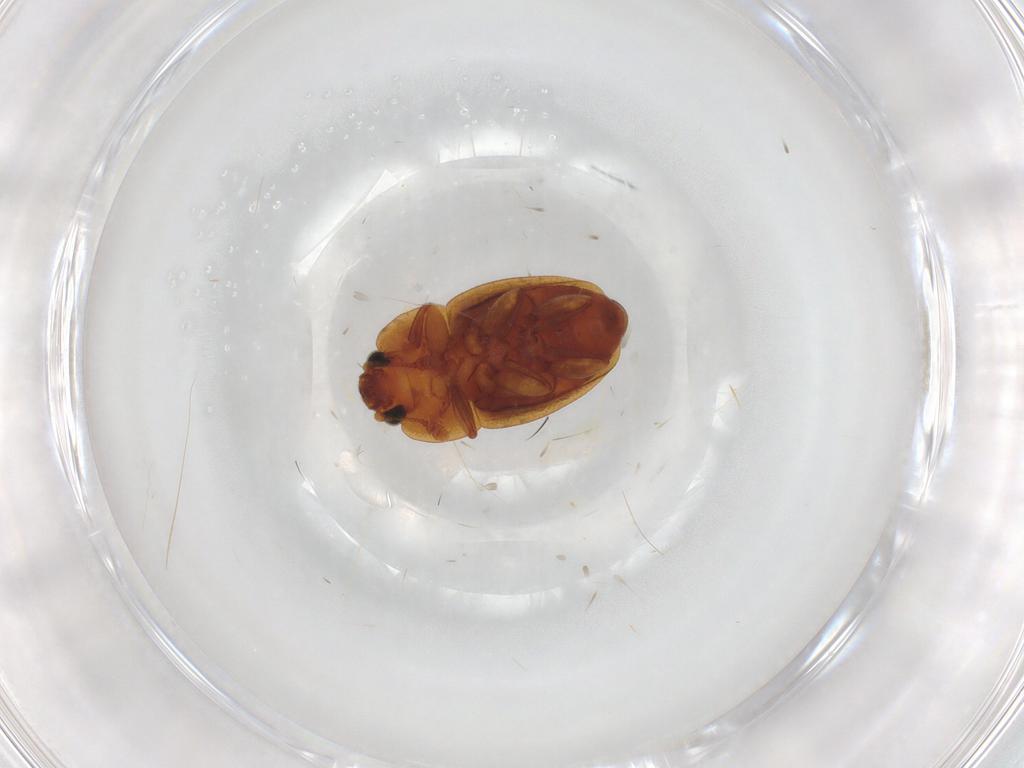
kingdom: Animalia
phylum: Arthropoda
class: Insecta
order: Coleoptera
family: Nitidulidae
